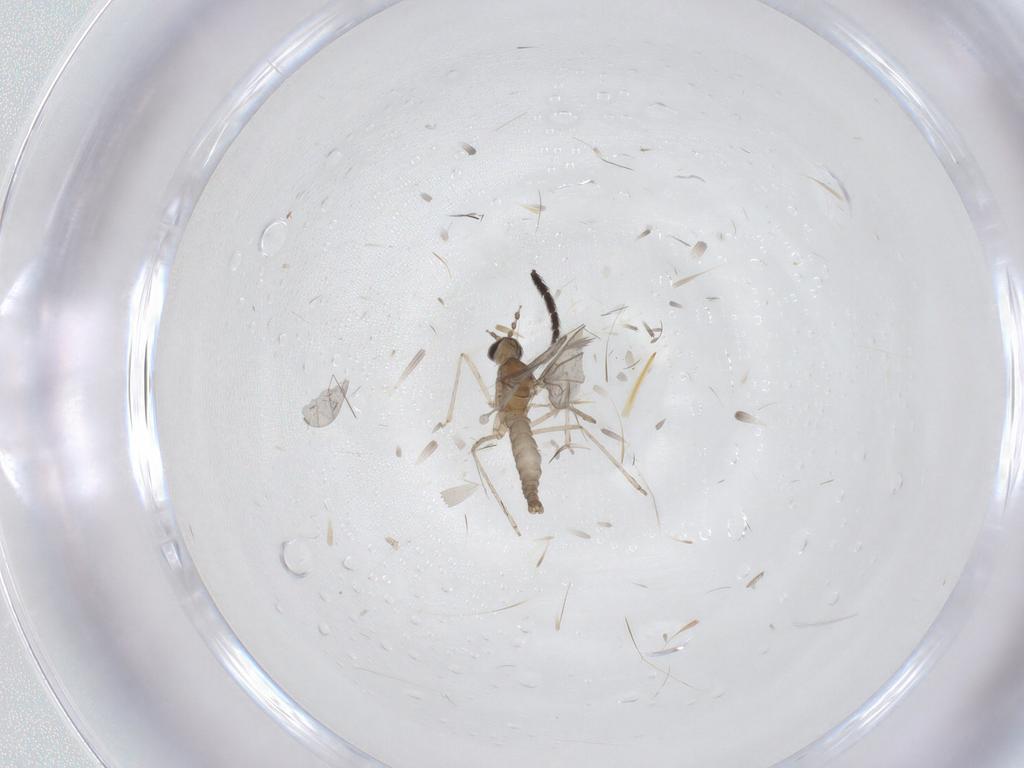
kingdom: Animalia
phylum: Arthropoda
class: Insecta
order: Diptera
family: Sciaridae
